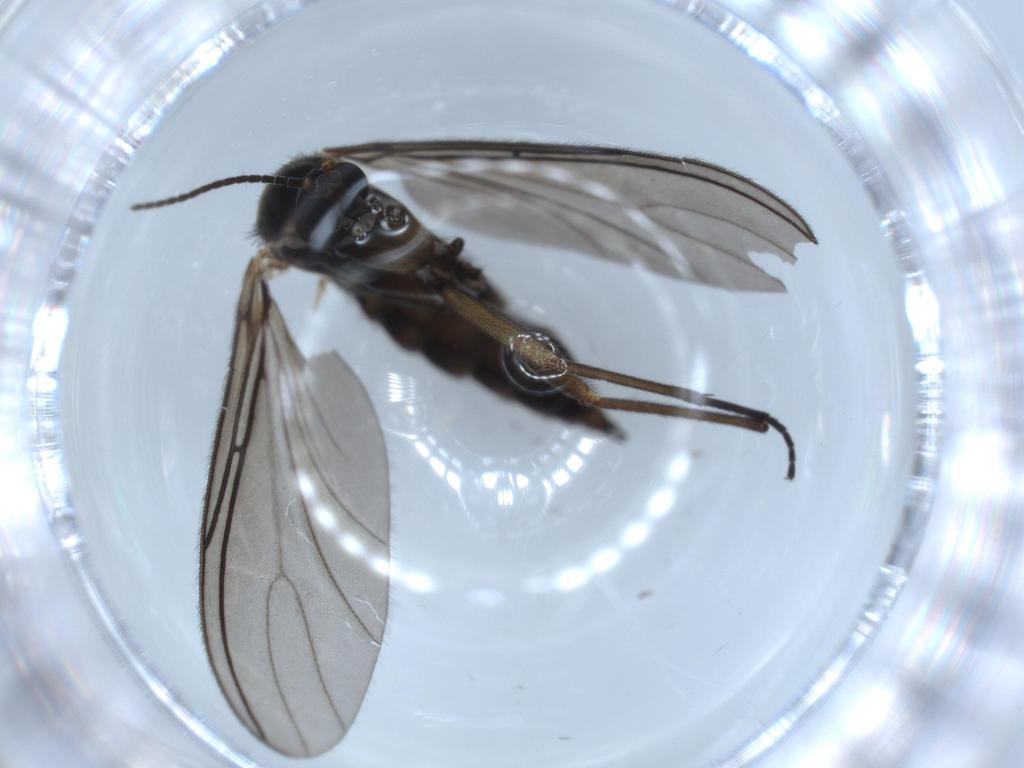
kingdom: Animalia
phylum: Arthropoda
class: Insecta
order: Diptera
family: Sciaridae
